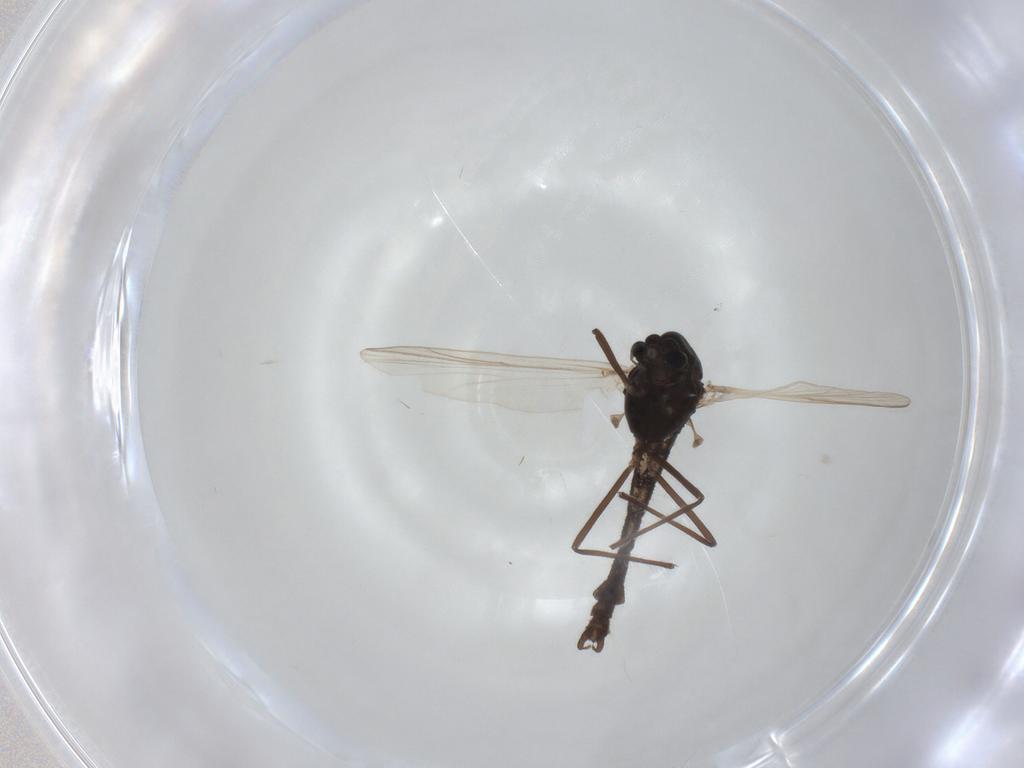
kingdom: Animalia
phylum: Arthropoda
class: Insecta
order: Diptera
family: Chironomidae
